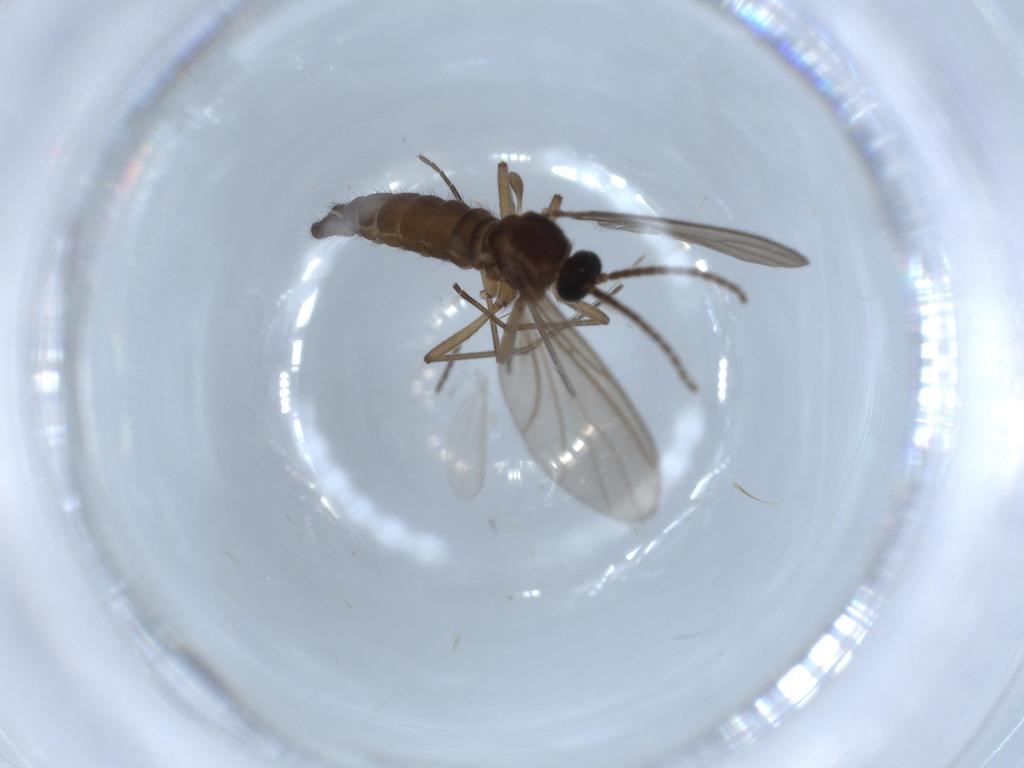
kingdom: Animalia
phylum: Arthropoda
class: Insecta
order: Diptera
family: Sciaridae
